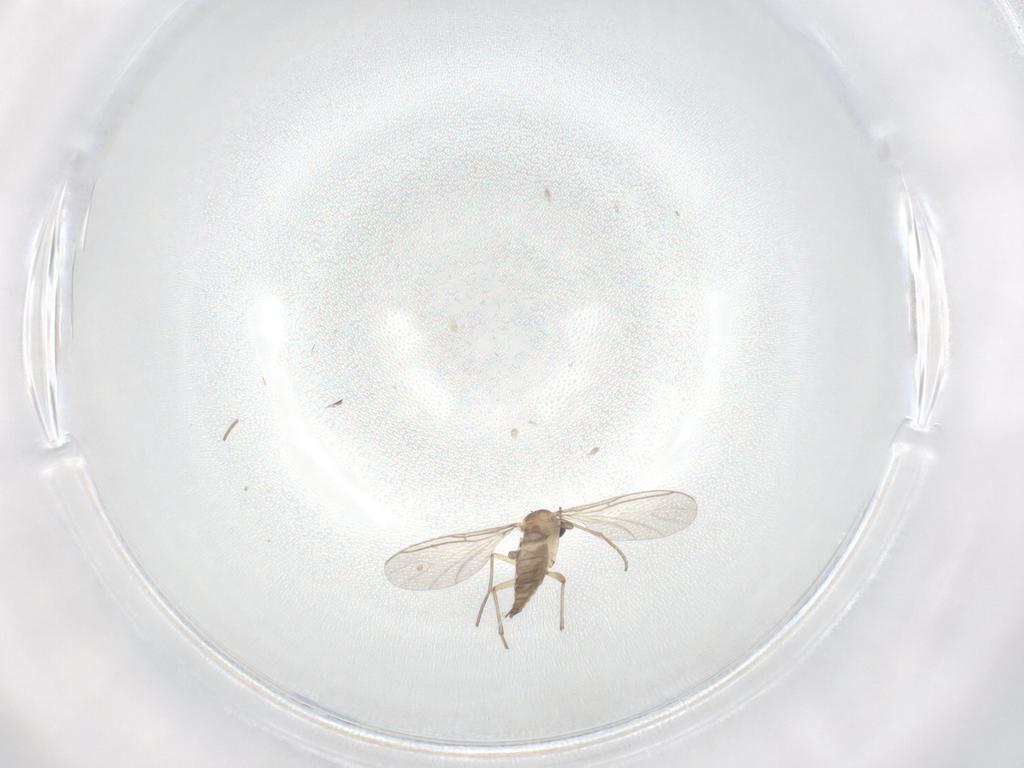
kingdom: Animalia
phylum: Arthropoda
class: Insecta
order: Diptera
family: Sciaridae
